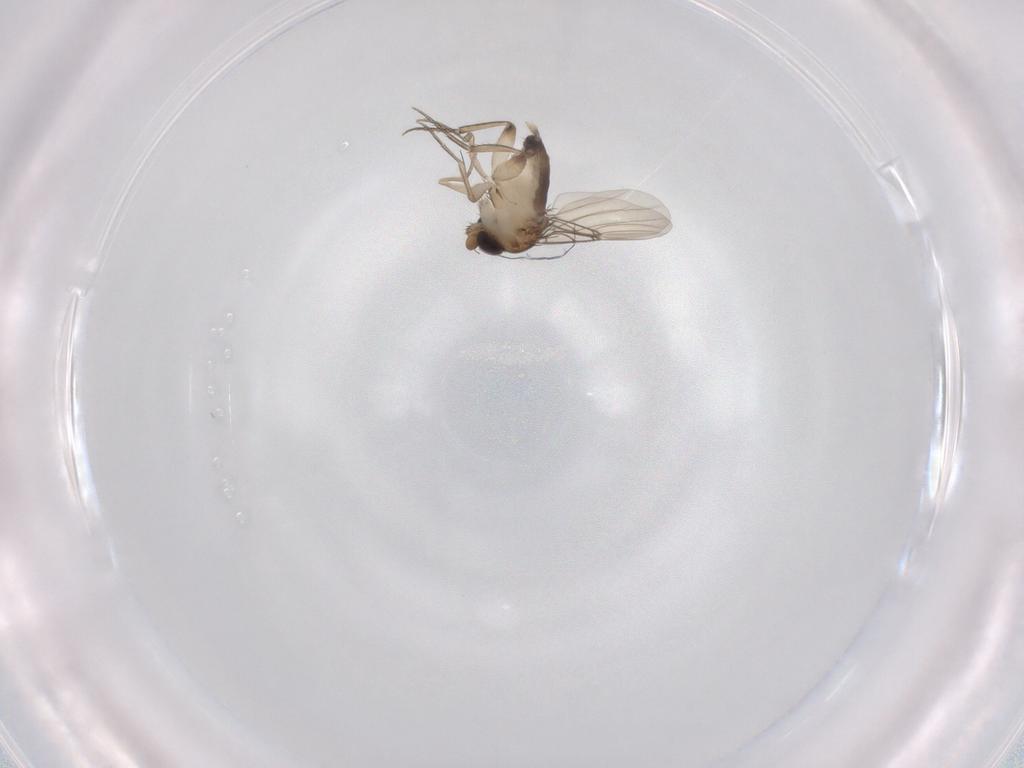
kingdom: Animalia
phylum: Arthropoda
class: Insecta
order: Diptera
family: Phoridae
